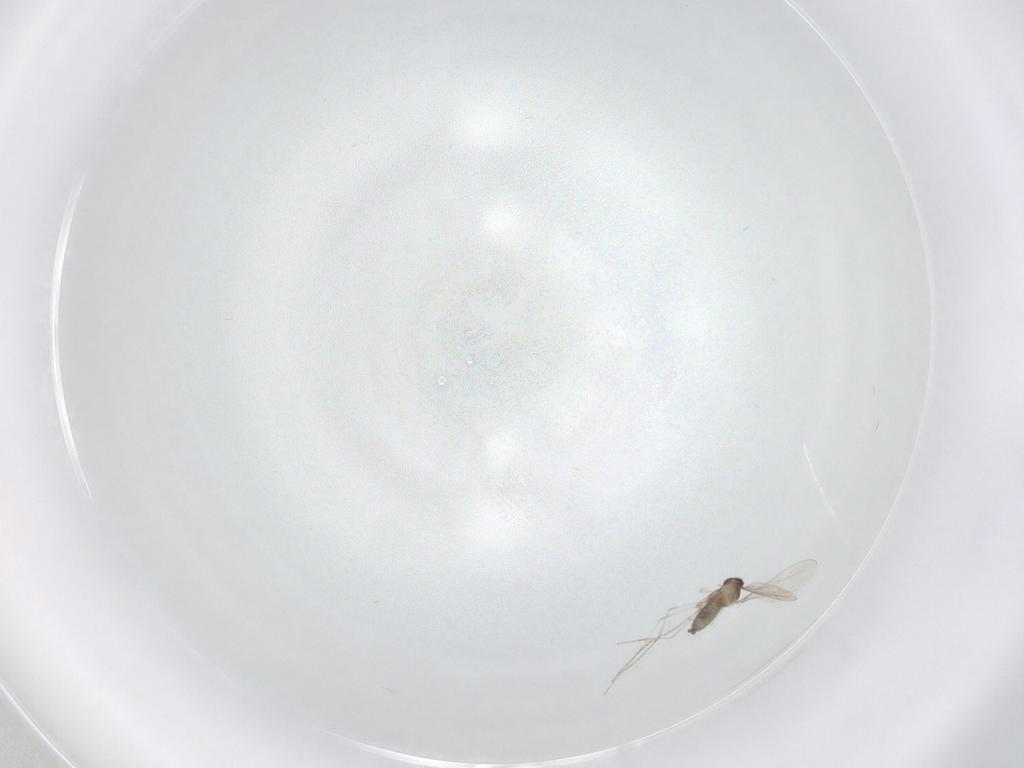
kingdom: Animalia
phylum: Arthropoda
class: Insecta
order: Diptera
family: Cecidomyiidae
